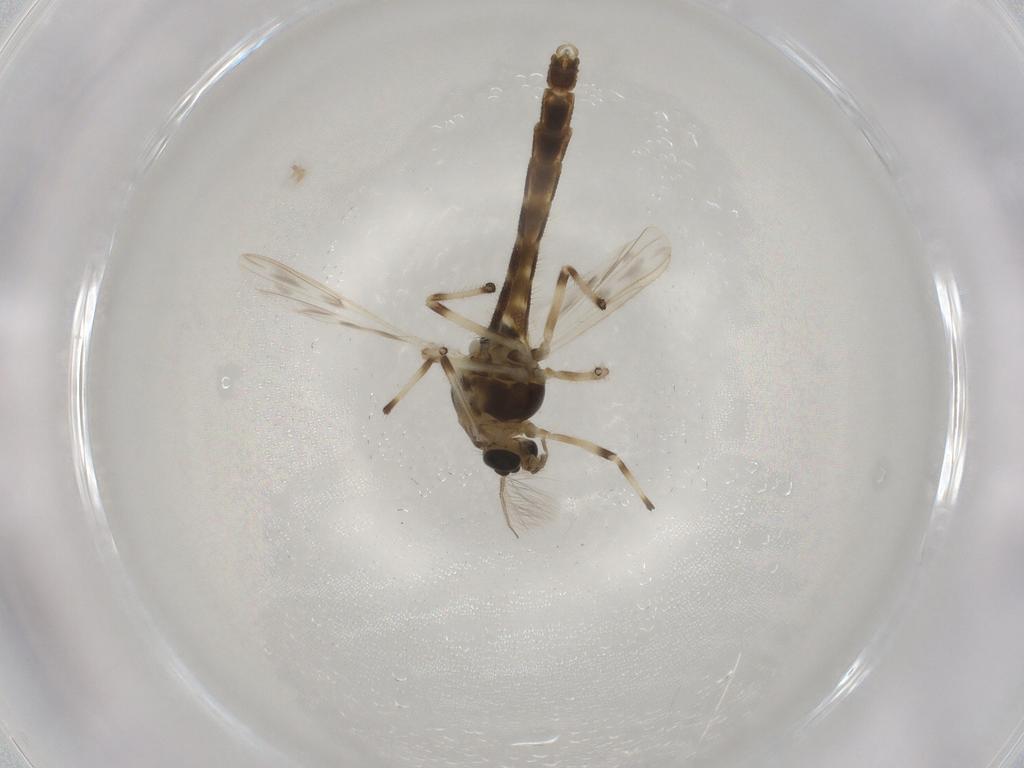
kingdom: Animalia
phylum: Arthropoda
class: Insecta
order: Diptera
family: Chironomidae
